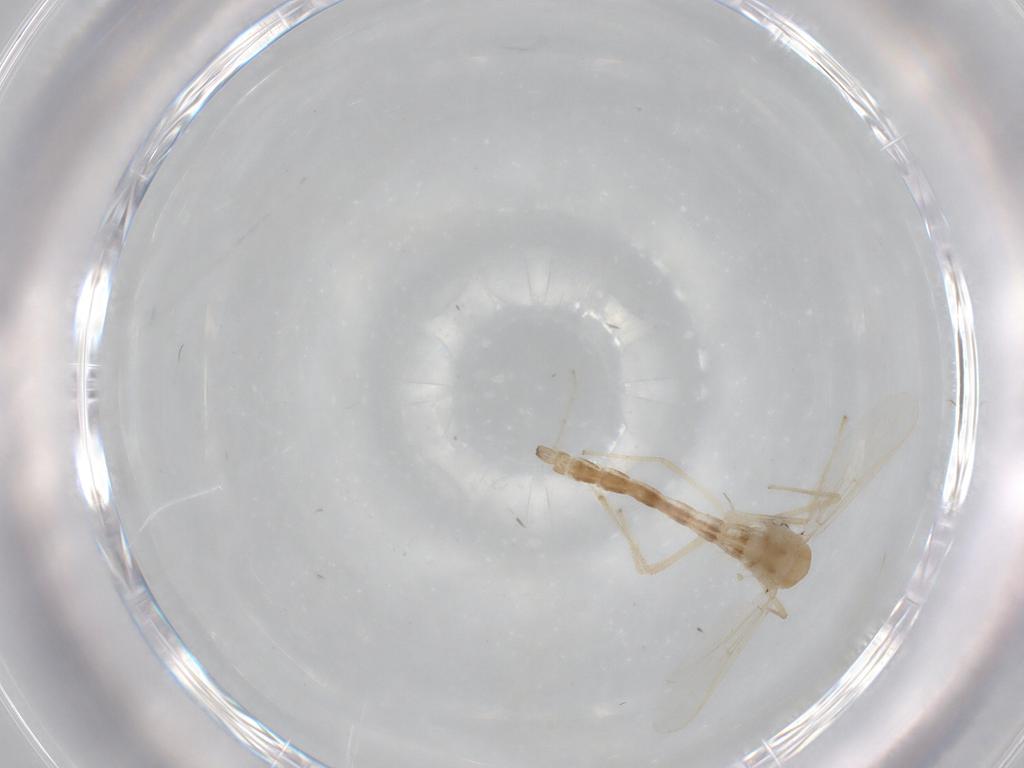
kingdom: Animalia
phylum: Arthropoda
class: Insecta
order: Diptera
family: Chironomidae
